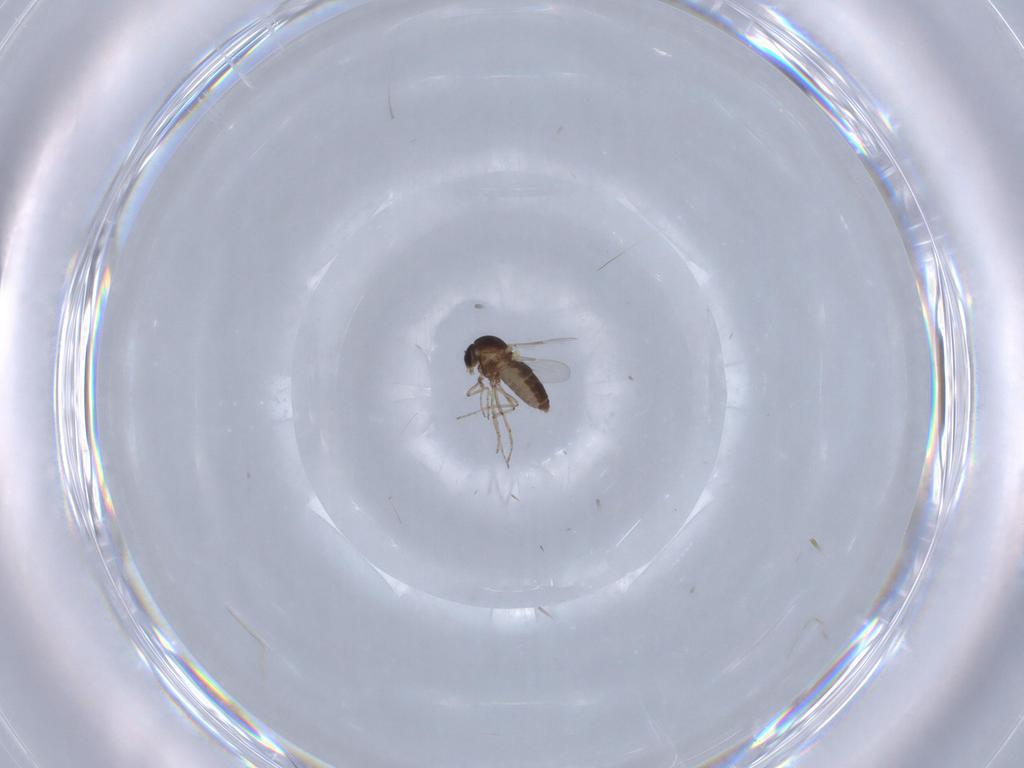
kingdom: Animalia
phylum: Arthropoda
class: Insecta
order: Diptera
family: Ceratopogonidae
